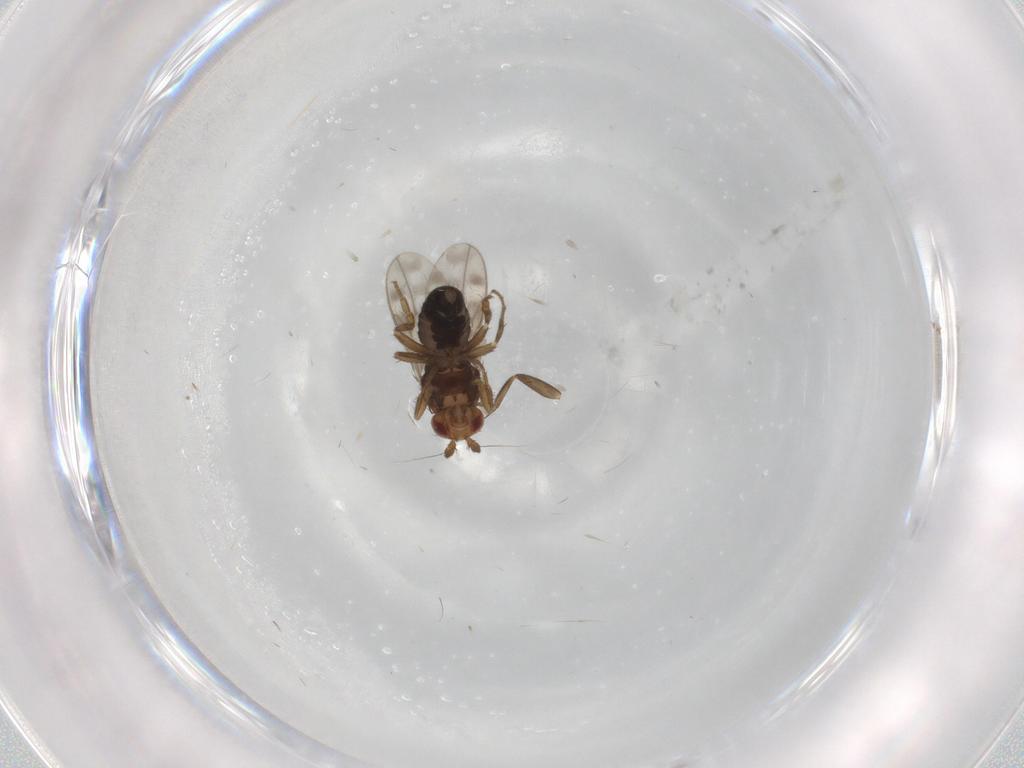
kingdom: Animalia
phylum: Arthropoda
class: Insecta
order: Diptera
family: Sphaeroceridae
